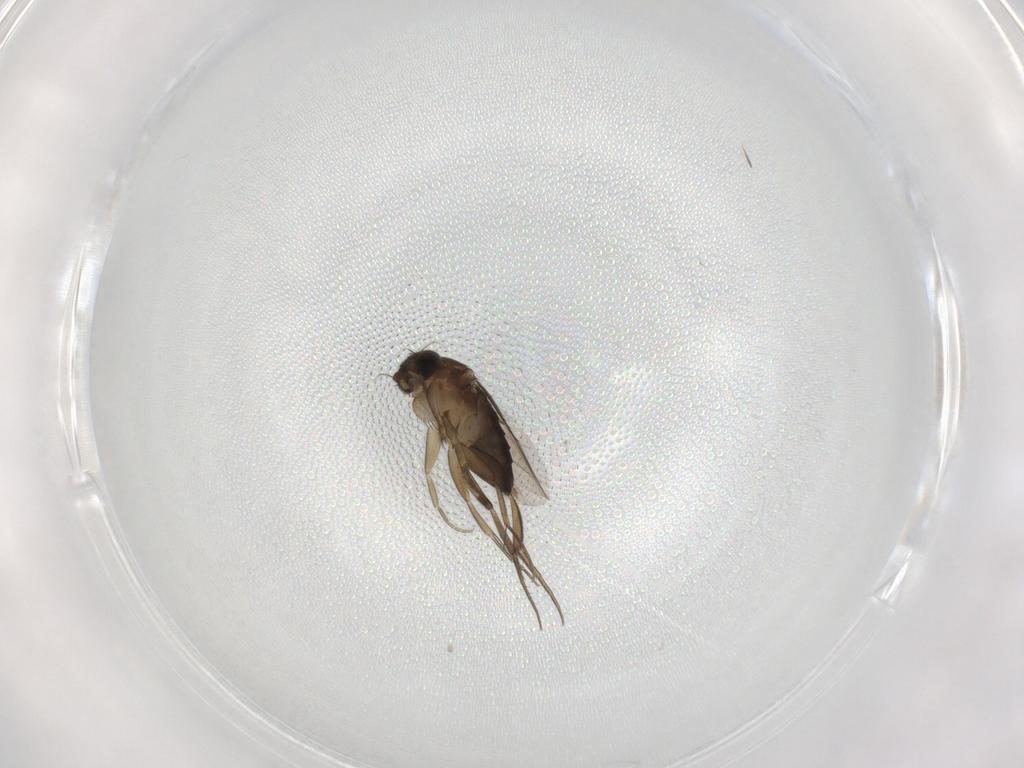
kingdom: Animalia
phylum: Arthropoda
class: Insecta
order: Diptera
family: Phoridae
